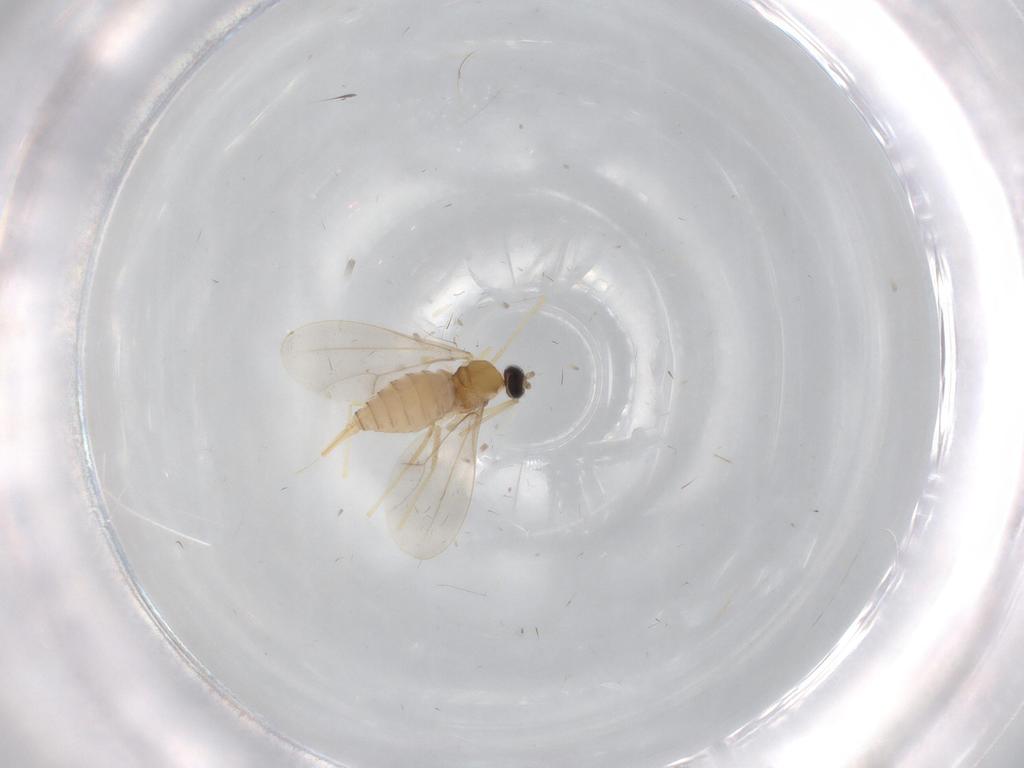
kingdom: Animalia
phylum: Arthropoda
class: Insecta
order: Diptera
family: Cecidomyiidae
